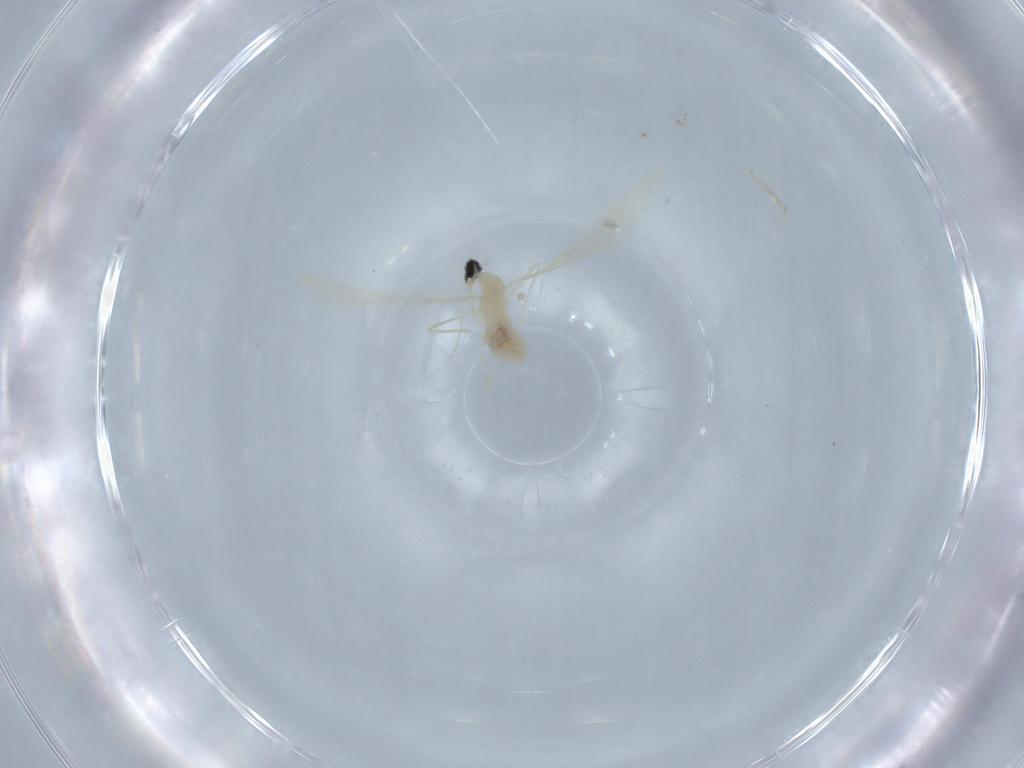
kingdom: Animalia
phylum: Arthropoda
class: Insecta
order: Diptera
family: Cecidomyiidae
